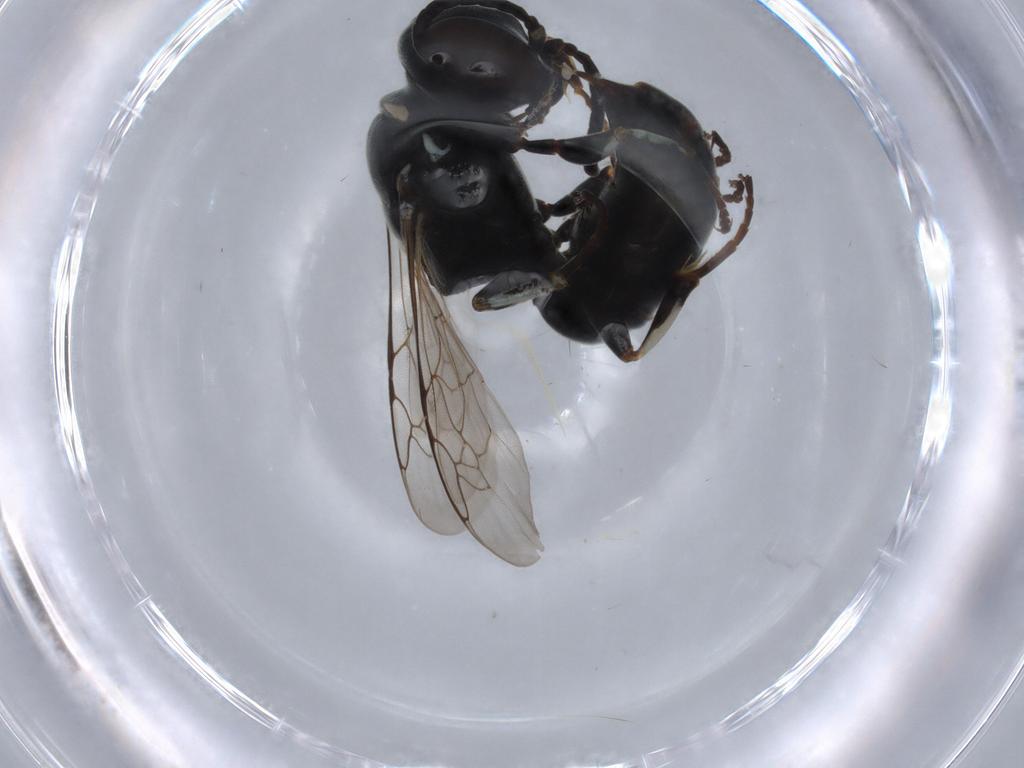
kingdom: Animalia
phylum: Arthropoda
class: Insecta
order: Hymenoptera
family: Crabronidae
